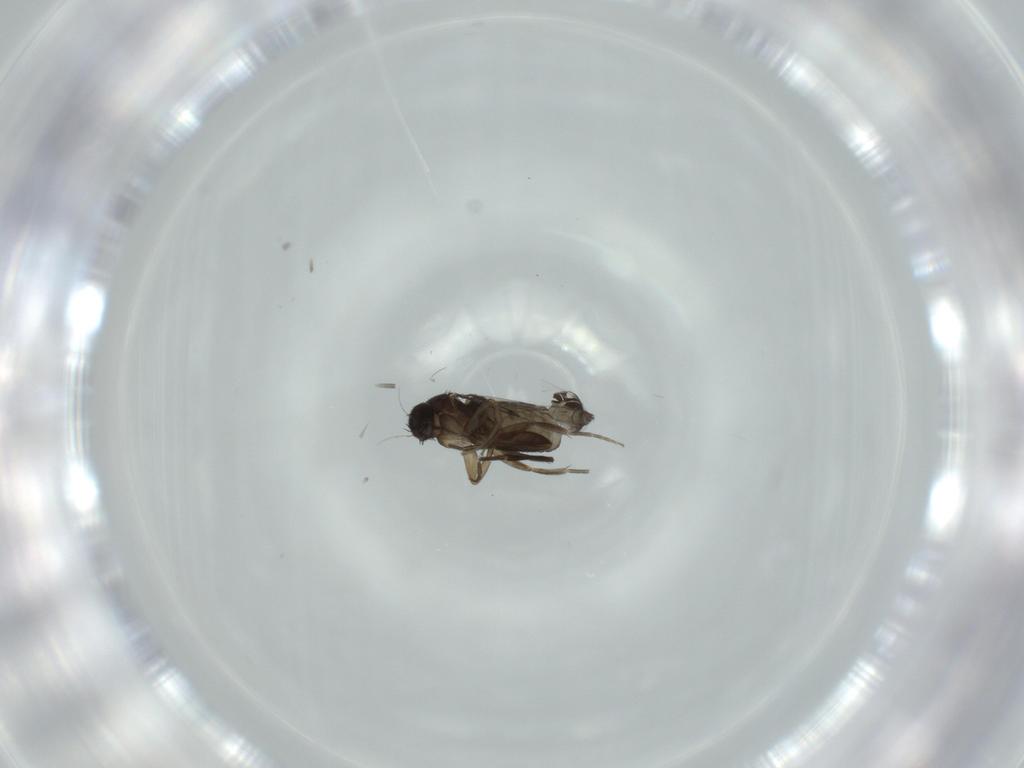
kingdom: Animalia
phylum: Arthropoda
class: Insecta
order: Diptera
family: Phoridae
